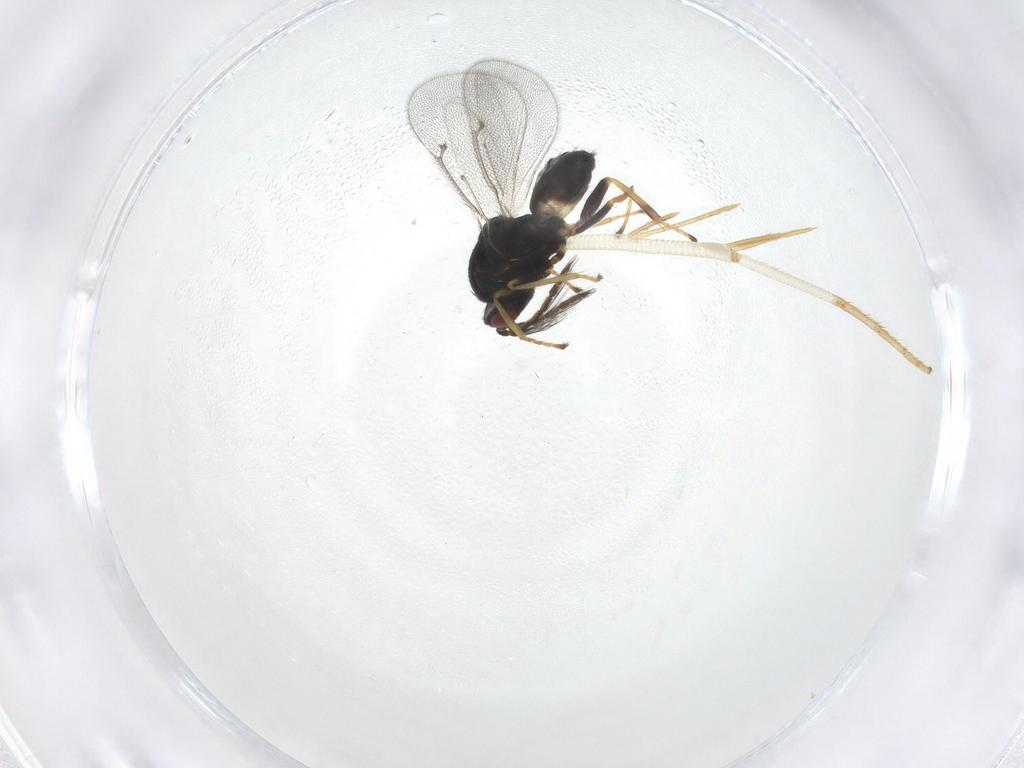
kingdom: Animalia
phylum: Arthropoda
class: Insecta
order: Hymenoptera
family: Eulophidae
